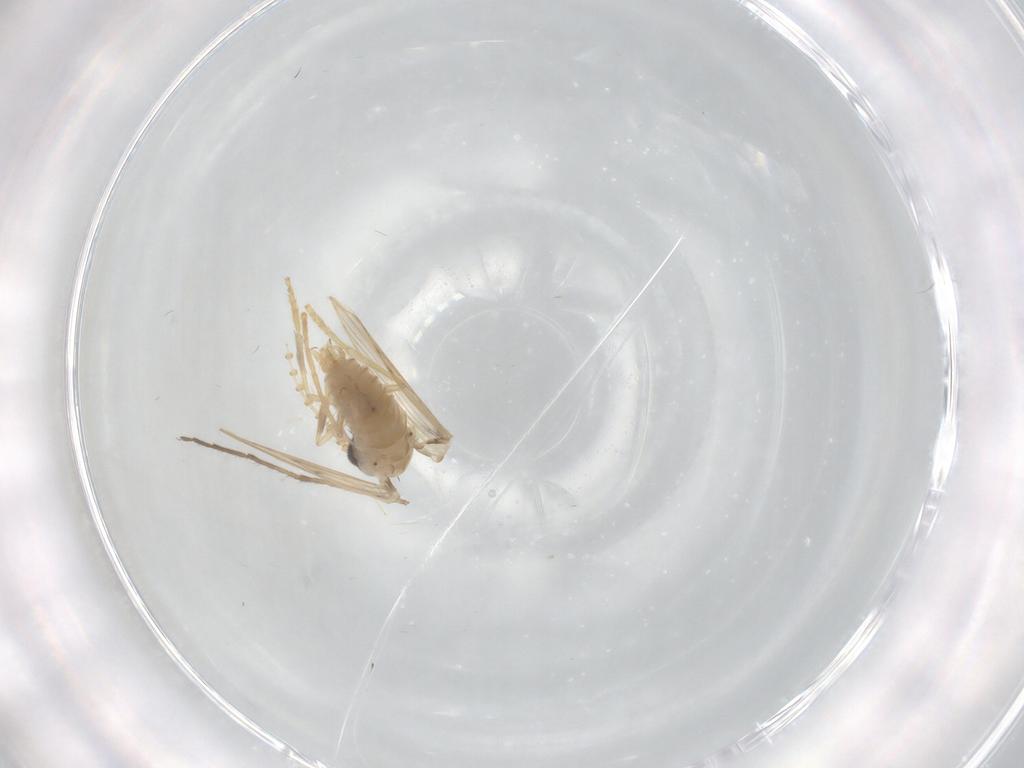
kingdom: Animalia
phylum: Arthropoda
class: Insecta
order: Diptera
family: Psychodidae
